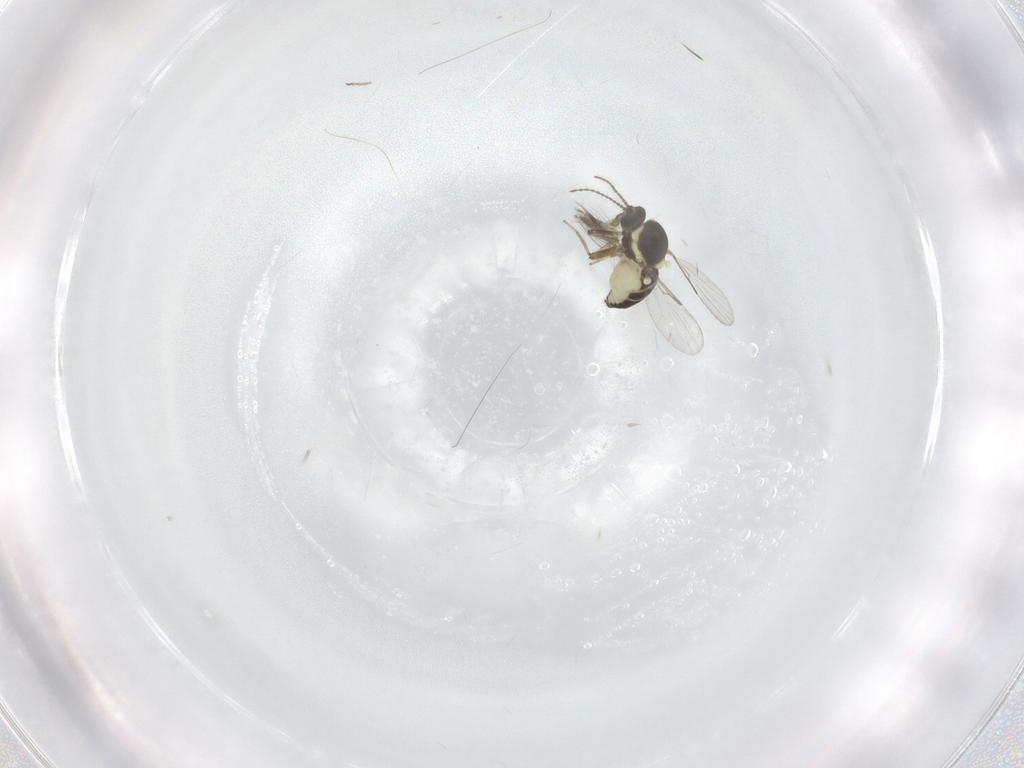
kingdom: Animalia
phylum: Arthropoda
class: Insecta
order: Diptera
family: Ceratopogonidae
